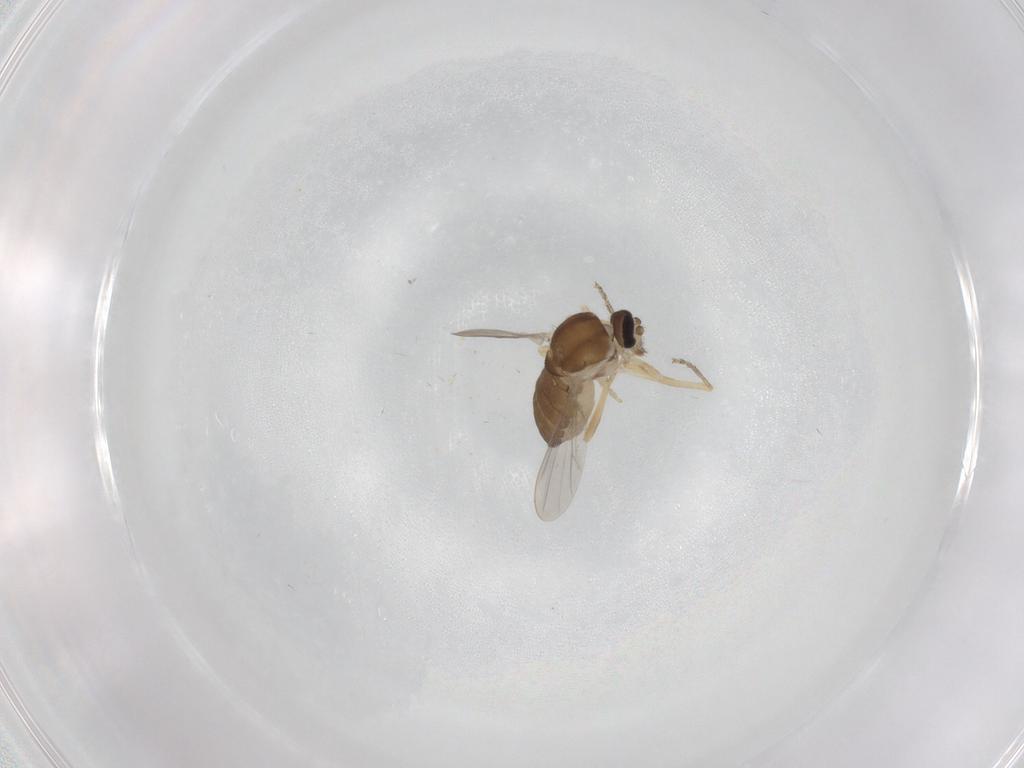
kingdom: Animalia
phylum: Arthropoda
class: Insecta
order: Diptera
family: Ceratopogonidae
